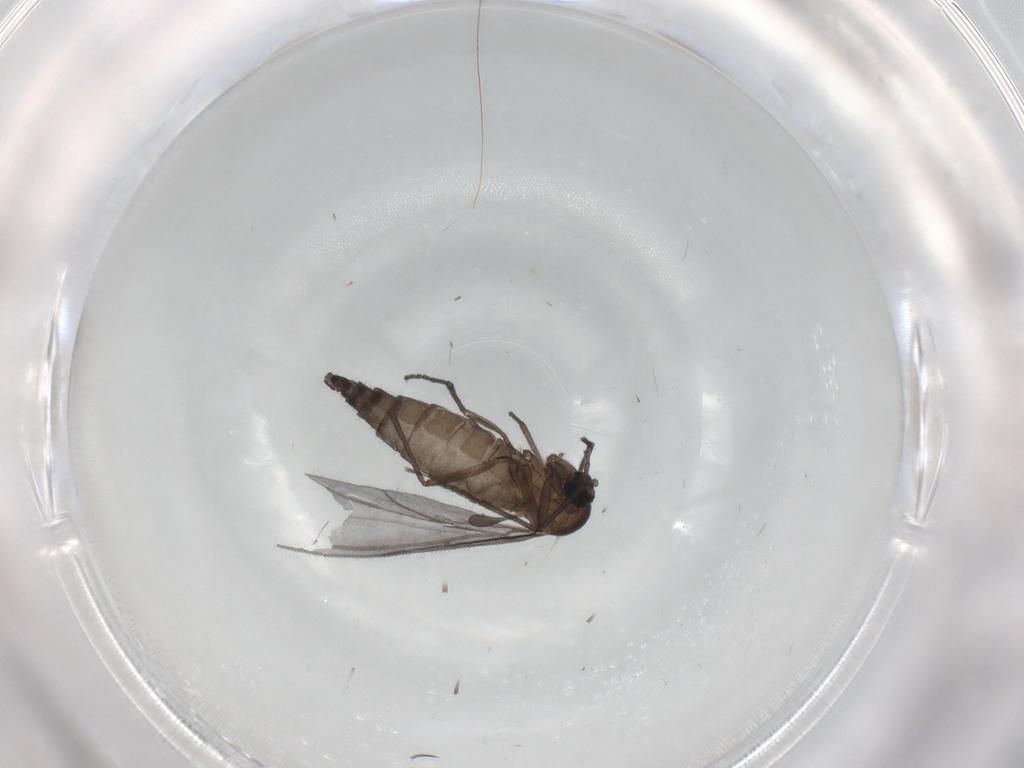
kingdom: Animalia
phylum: Arthropoda
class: Insecta
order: Diptera
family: Sciaridae
